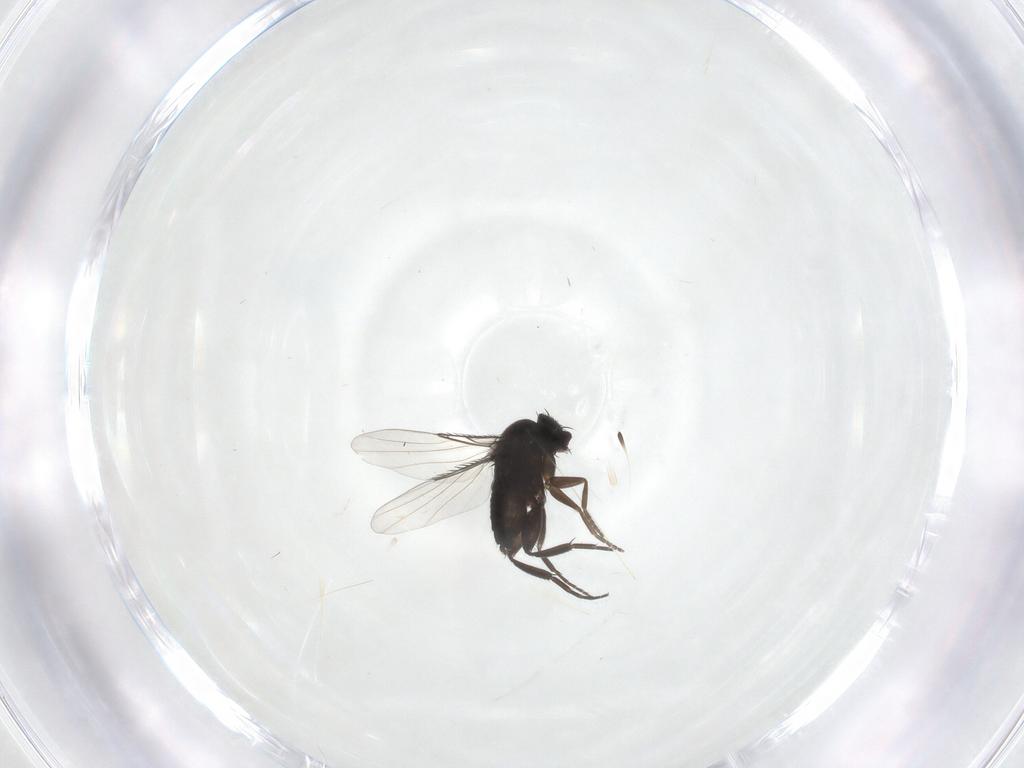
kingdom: Animalia
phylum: Arthropoda
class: Insecta
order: Diptera
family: Phoridae
